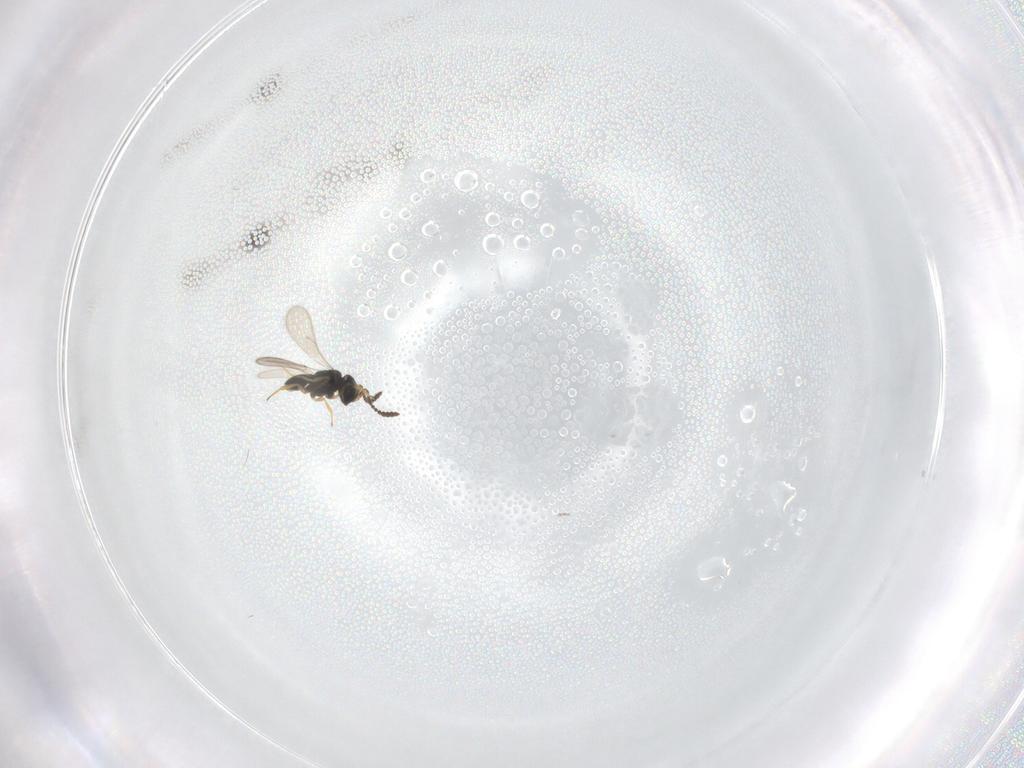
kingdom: Animalia
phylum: Arthropoda
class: Insecta
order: Hymenoptera
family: Scelionidae
